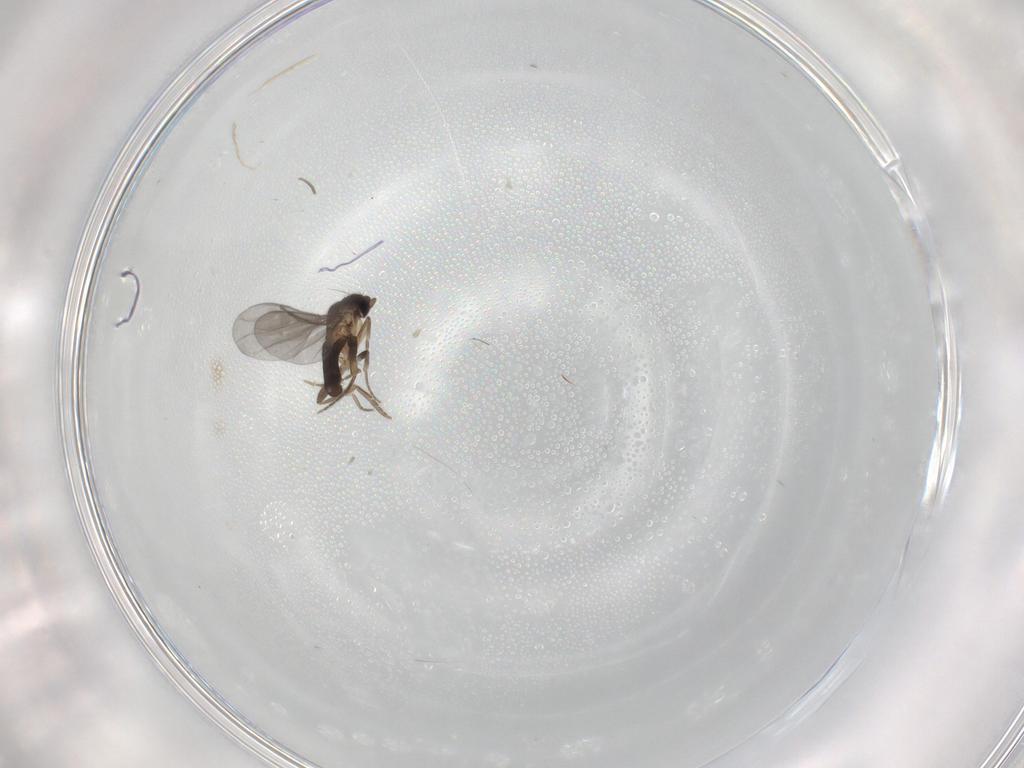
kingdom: Animalia
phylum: Arthropoda
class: Insecta
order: Diptera
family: Ceratopogonidae
